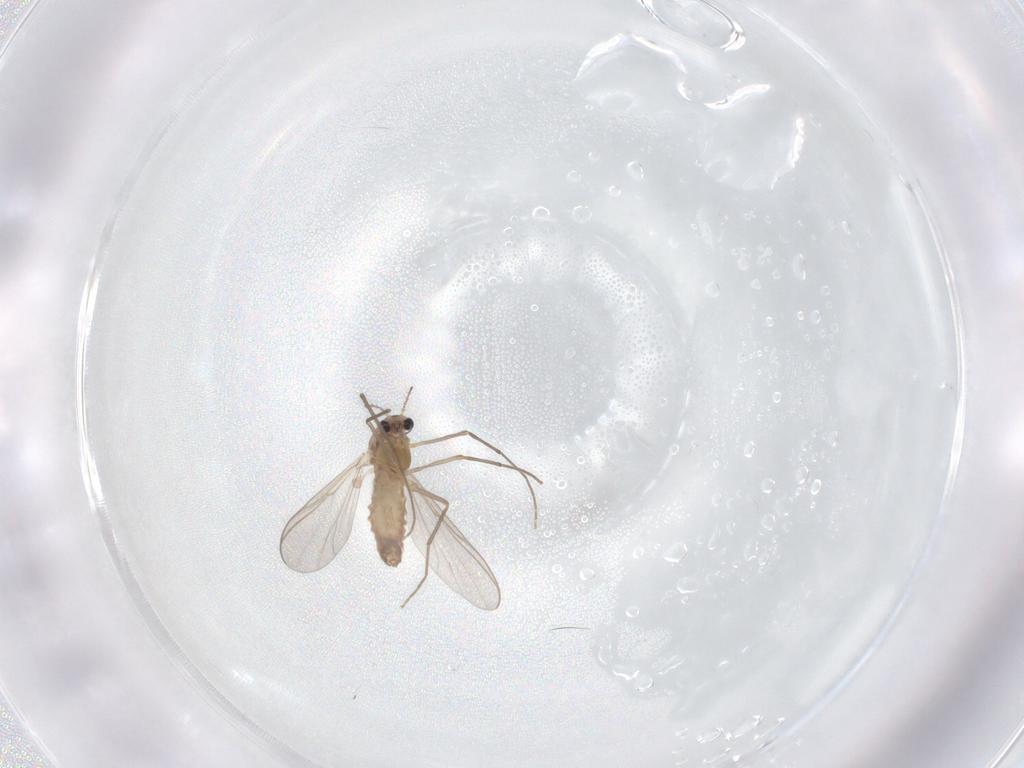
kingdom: Animalia
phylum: Arthropoda
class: Insecta
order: Diptera
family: Chironomidae
